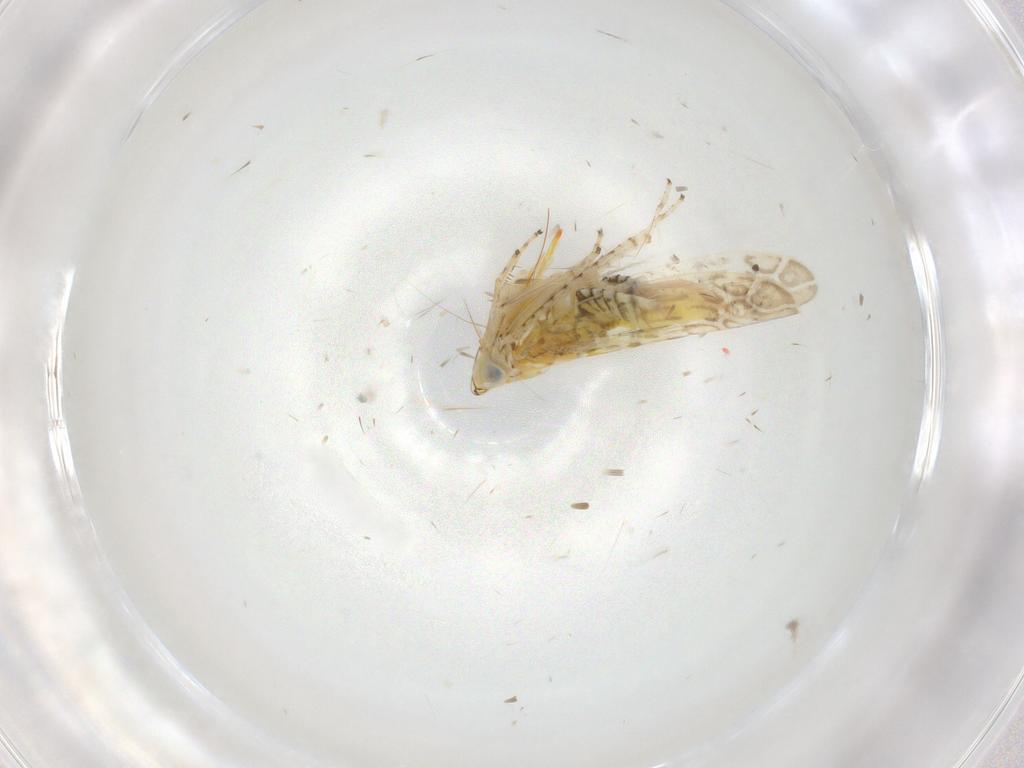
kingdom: Animalia
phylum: Arthropoda
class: Insecta
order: Hemiptera
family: Cicadellidae
